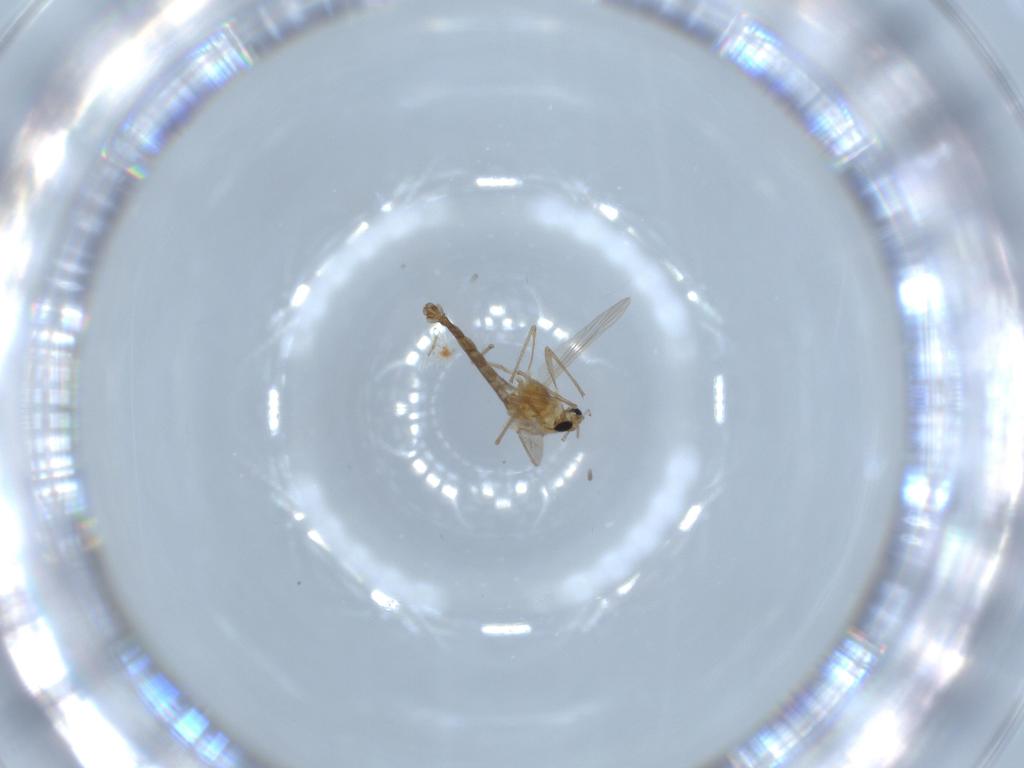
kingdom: Animalia
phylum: Arthropoda
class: Insecta
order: Diptera
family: Chironomidae
